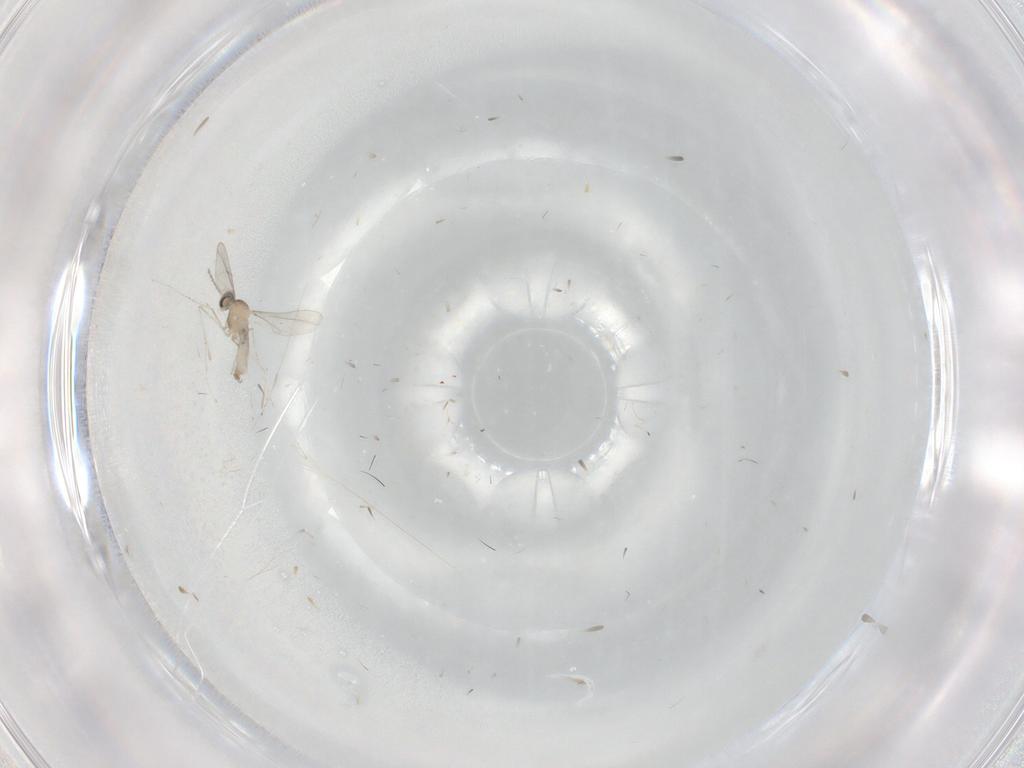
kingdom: Animalia
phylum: Arthropoda
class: Insecta
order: Diptera
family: Cecidomyiidae
